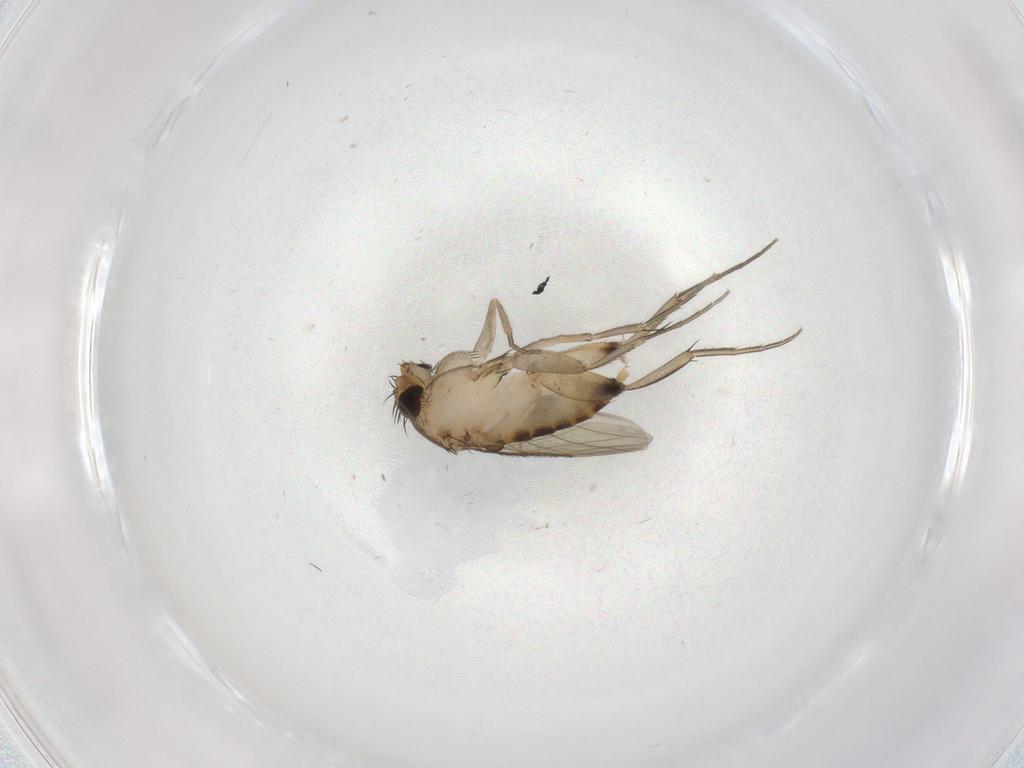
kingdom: Animalia
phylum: Arthropoda
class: Insecta
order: Diptera
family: Phoridae
